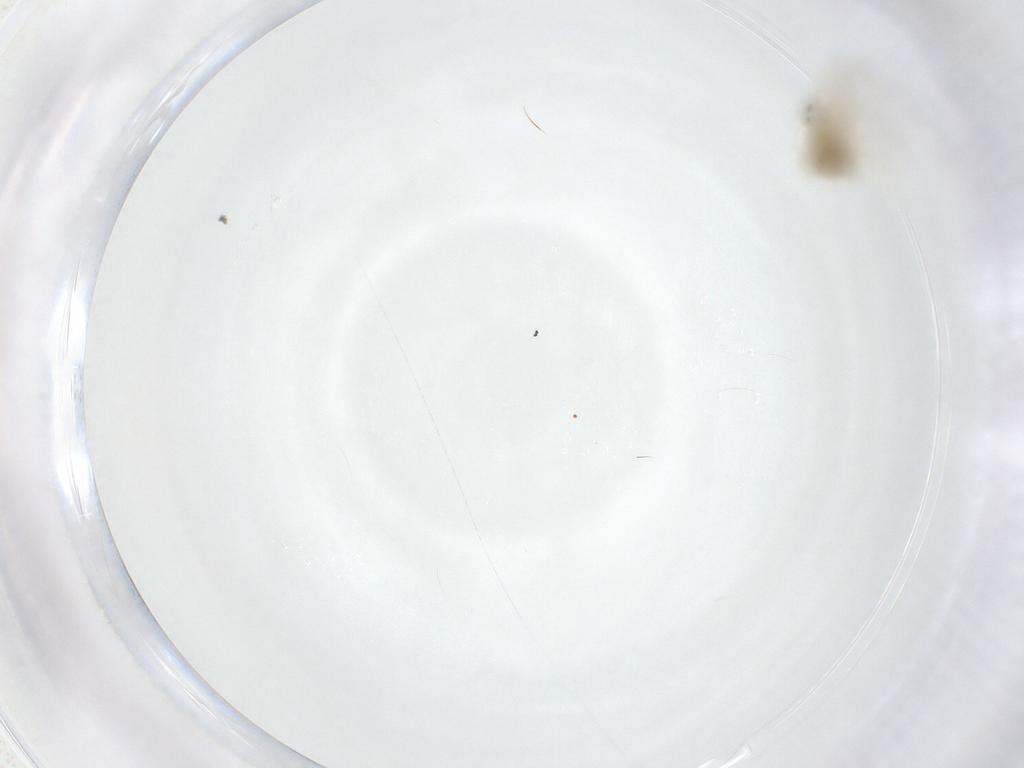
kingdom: Animalia
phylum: Arthropoda
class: Insecta
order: Diptera
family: Chironomidae
